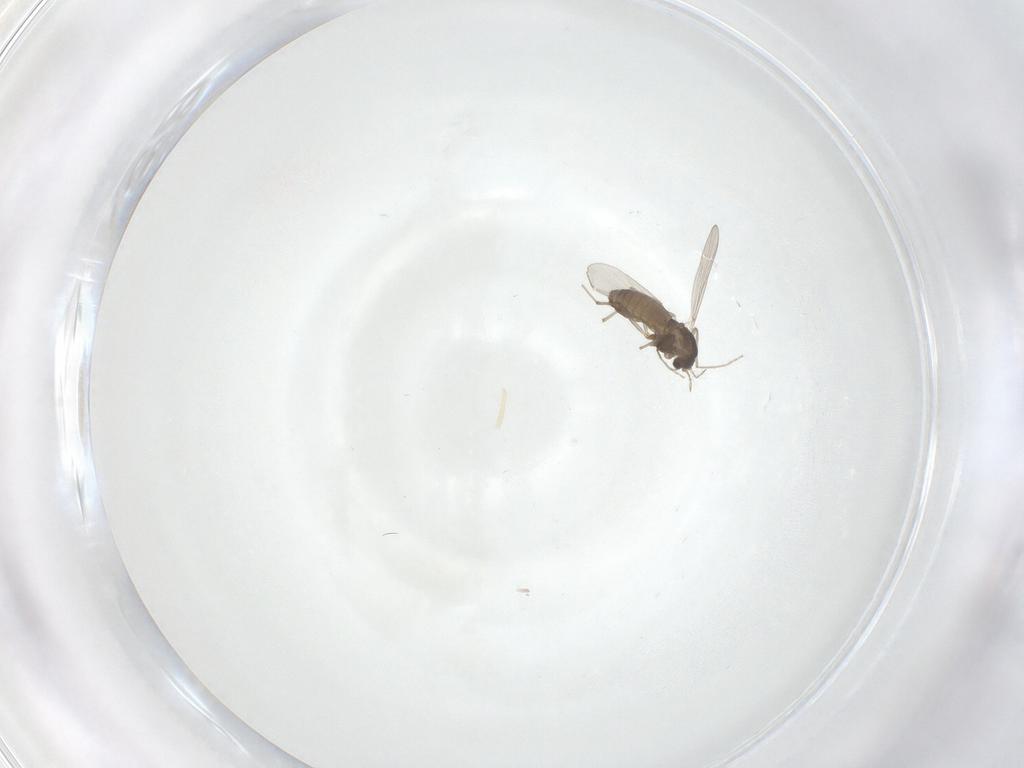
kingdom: Animalia
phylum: Arthropoda
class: Insecta
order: Diptera
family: Chironomidae
